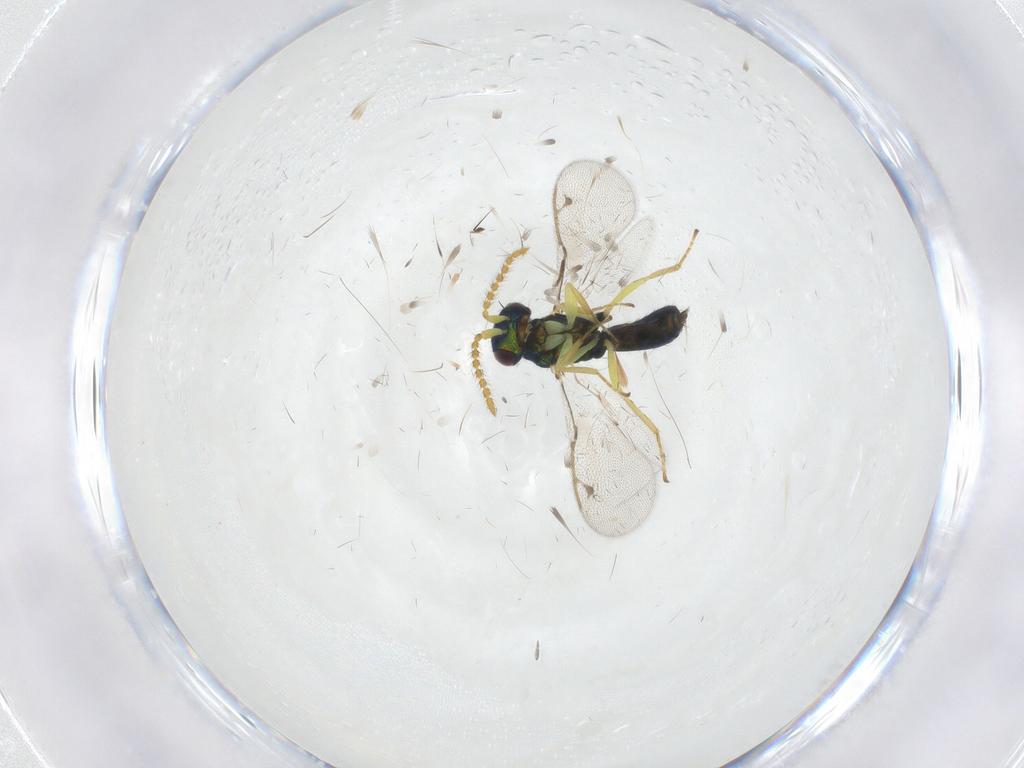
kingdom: Animalia
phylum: Arthropoda
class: Insecta
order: Hymenoptera
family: Pirenidae
